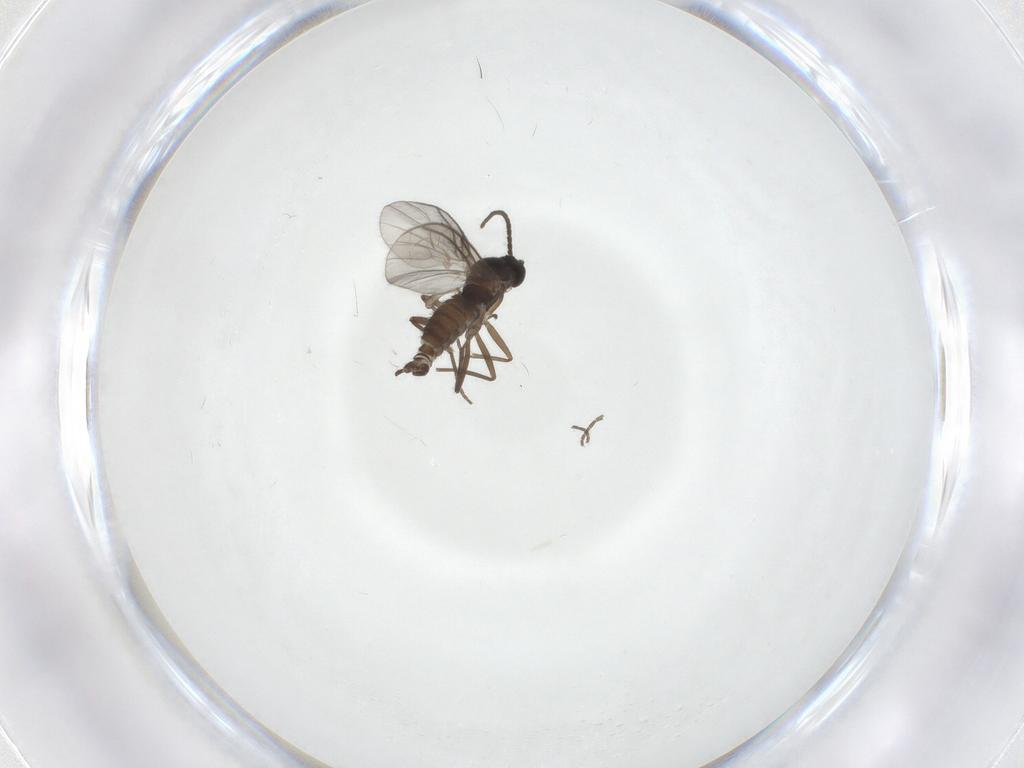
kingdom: Animalia
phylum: Arthropoda
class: Insecta
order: Diptera
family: Sciaridae
